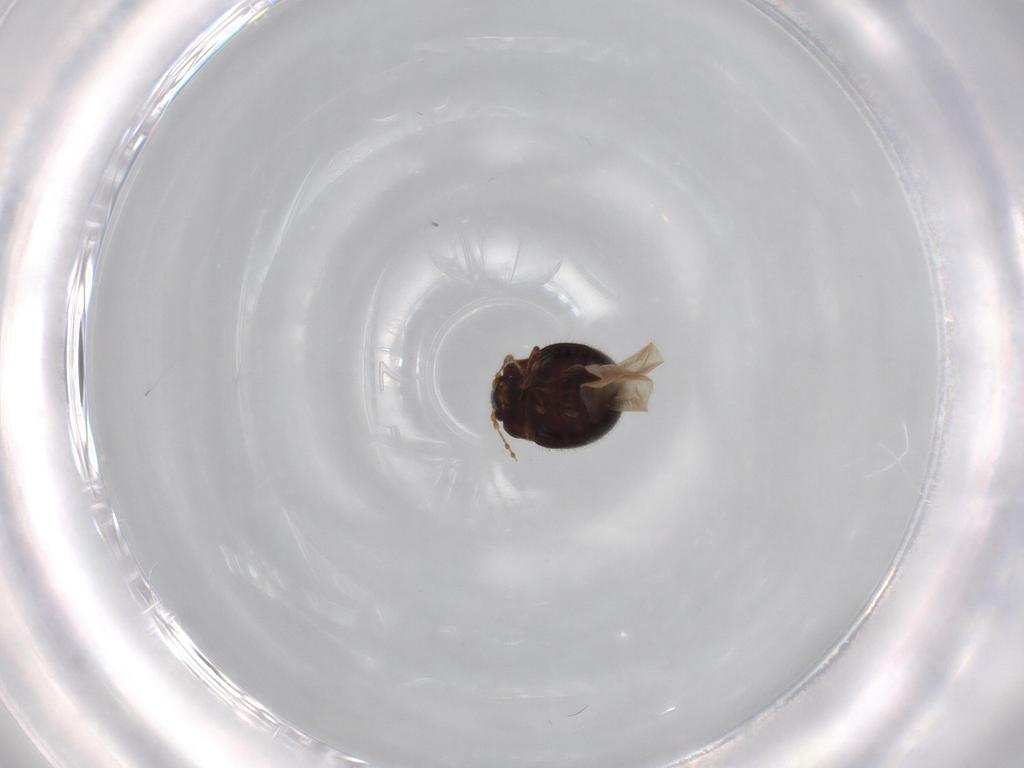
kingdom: Animalia
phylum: Arthropoda
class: Insecta
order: Coleoptera
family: Anamorphidae
